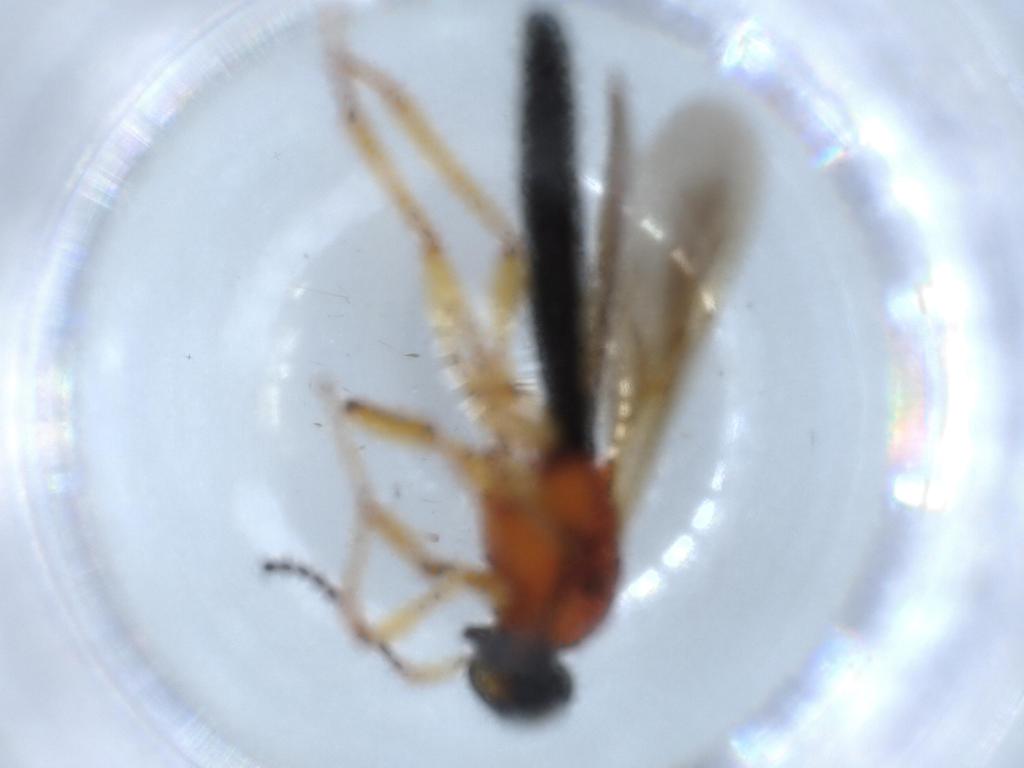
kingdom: Animalia
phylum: Arthropoda
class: Insecta
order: Hymenoptera
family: Scelionidae
